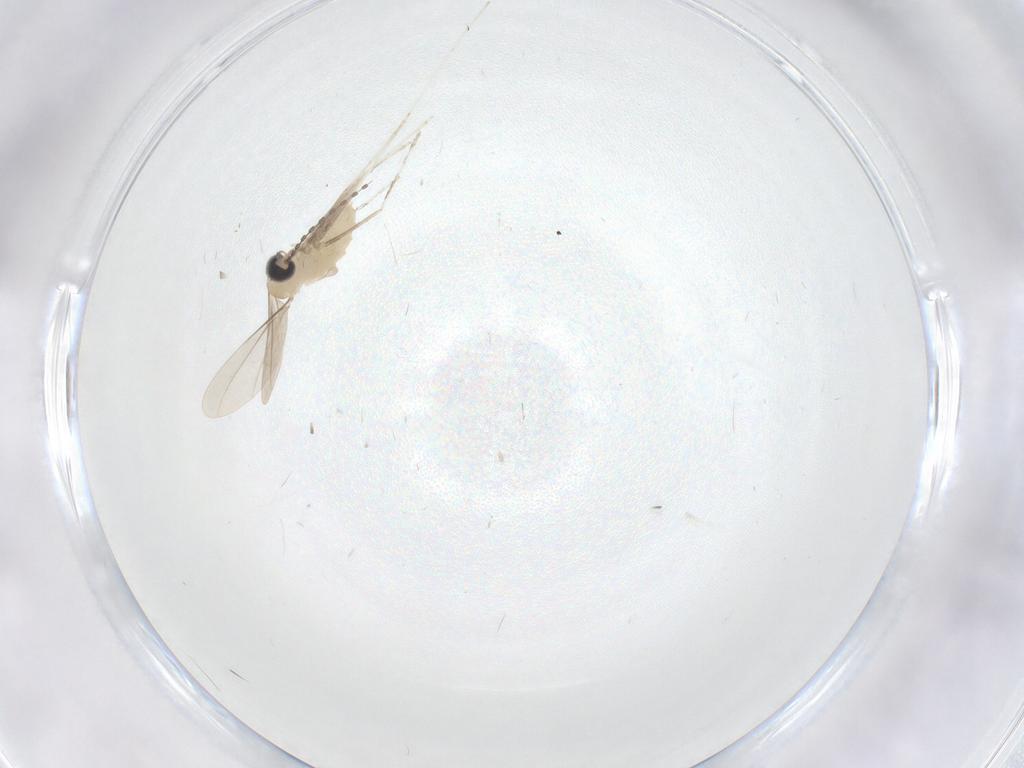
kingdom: Animalia
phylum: Arthropoda
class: Insecta
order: Diptera
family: Cecidomyiidae
